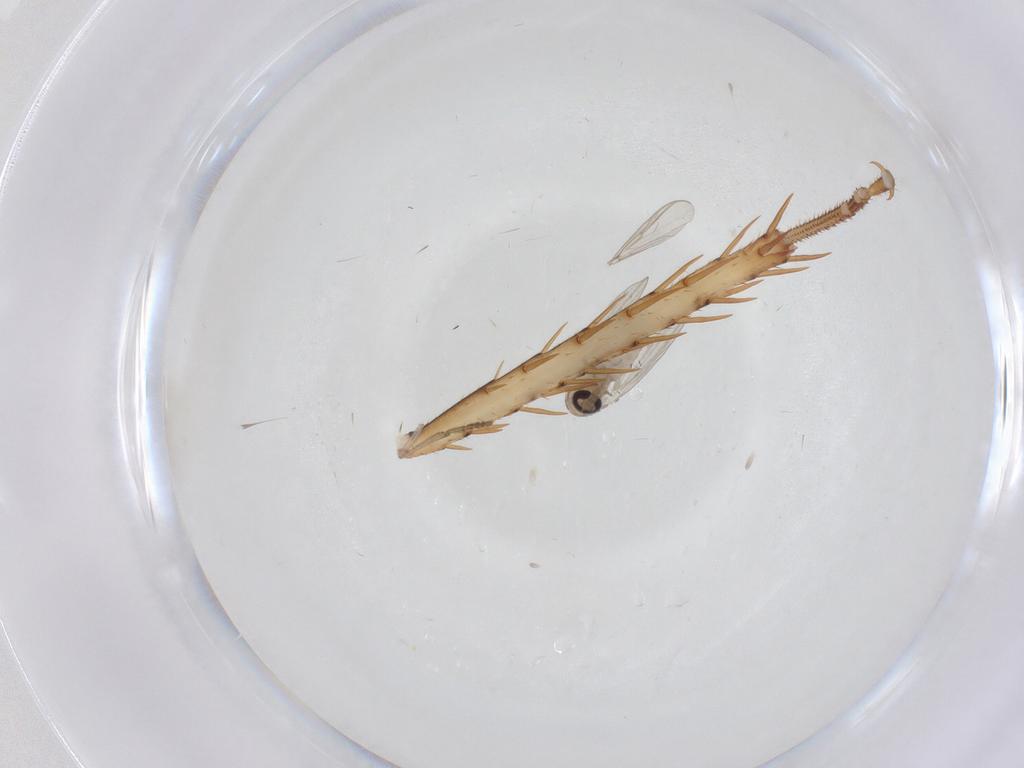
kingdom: Animalia
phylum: Arthropoda
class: Insecta
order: Diptera
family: Psychodidae
